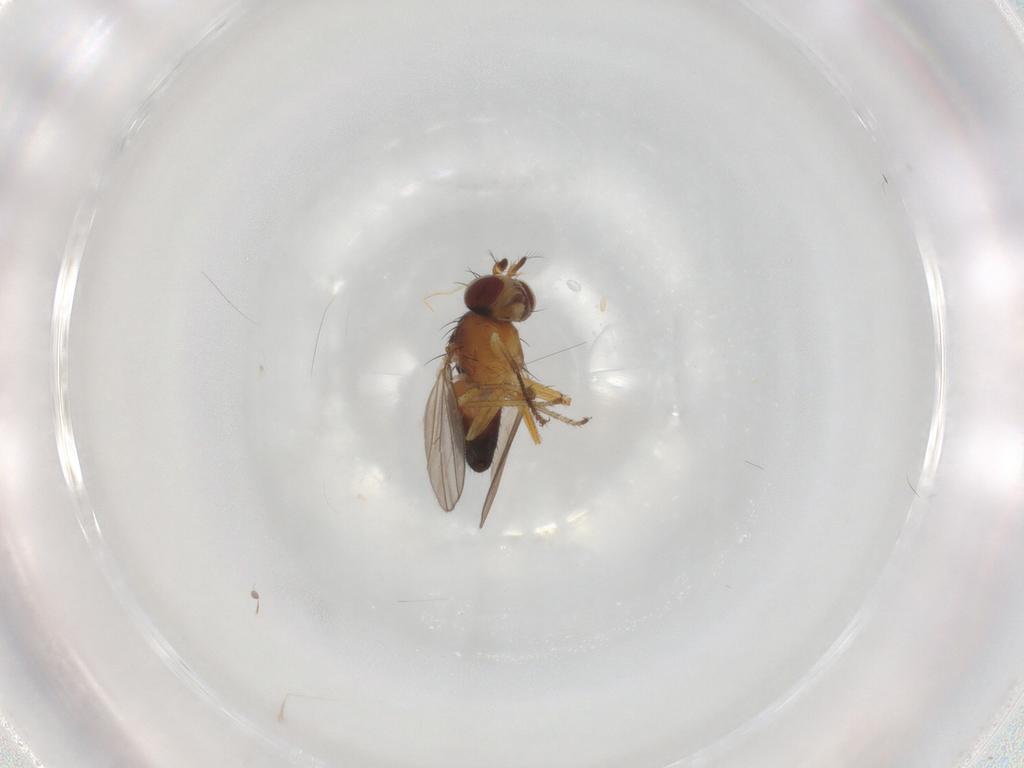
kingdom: Animalia
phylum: Arthropoda
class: Insecta
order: Diptera
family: Ephydridae
